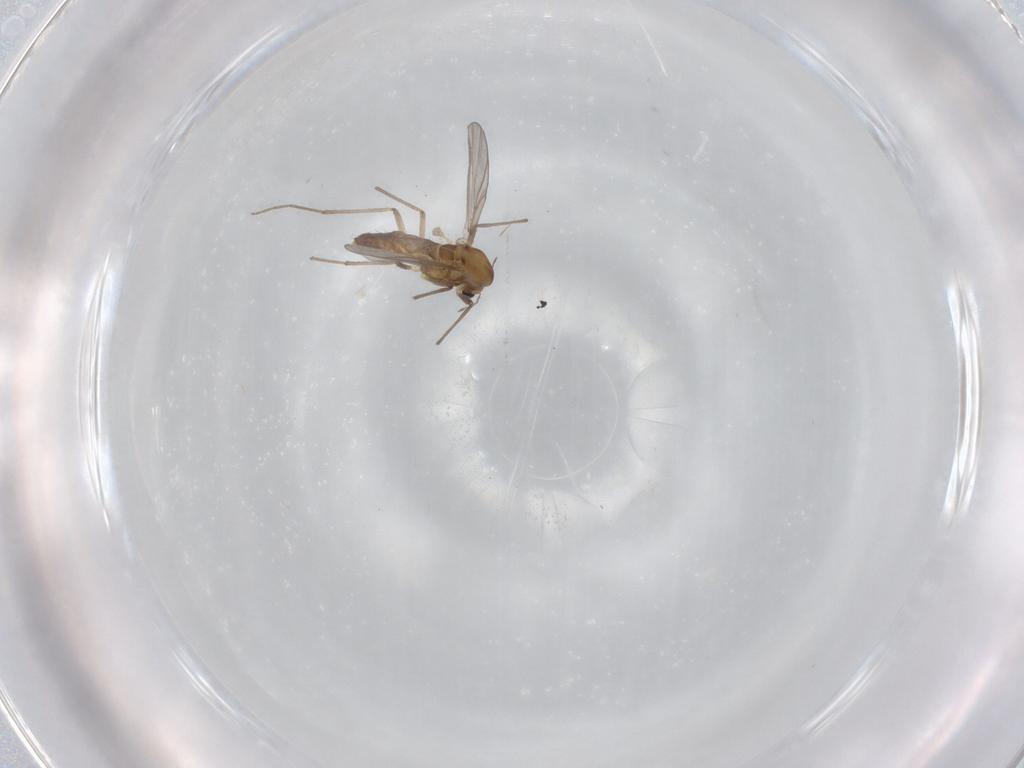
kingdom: Animalia
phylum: Arthropoda
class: Insecta
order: Diptera
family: Chironomidae
